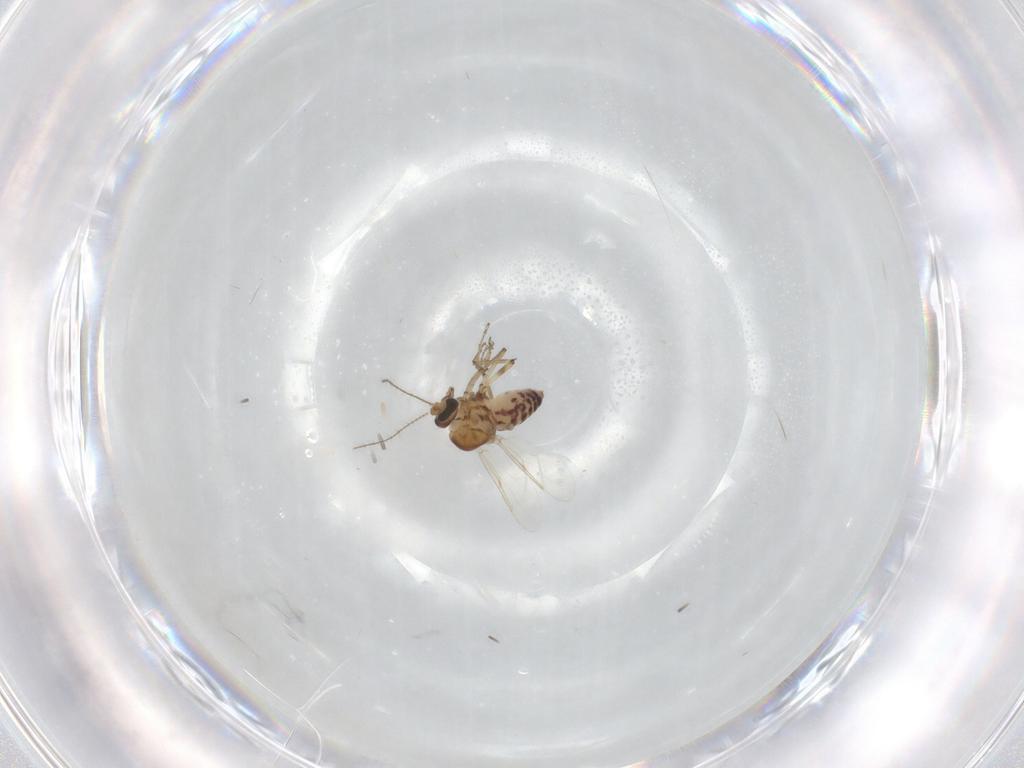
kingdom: Animalia
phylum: Arthropoda
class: Insecta
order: Diptera
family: Ceratopogonidae
